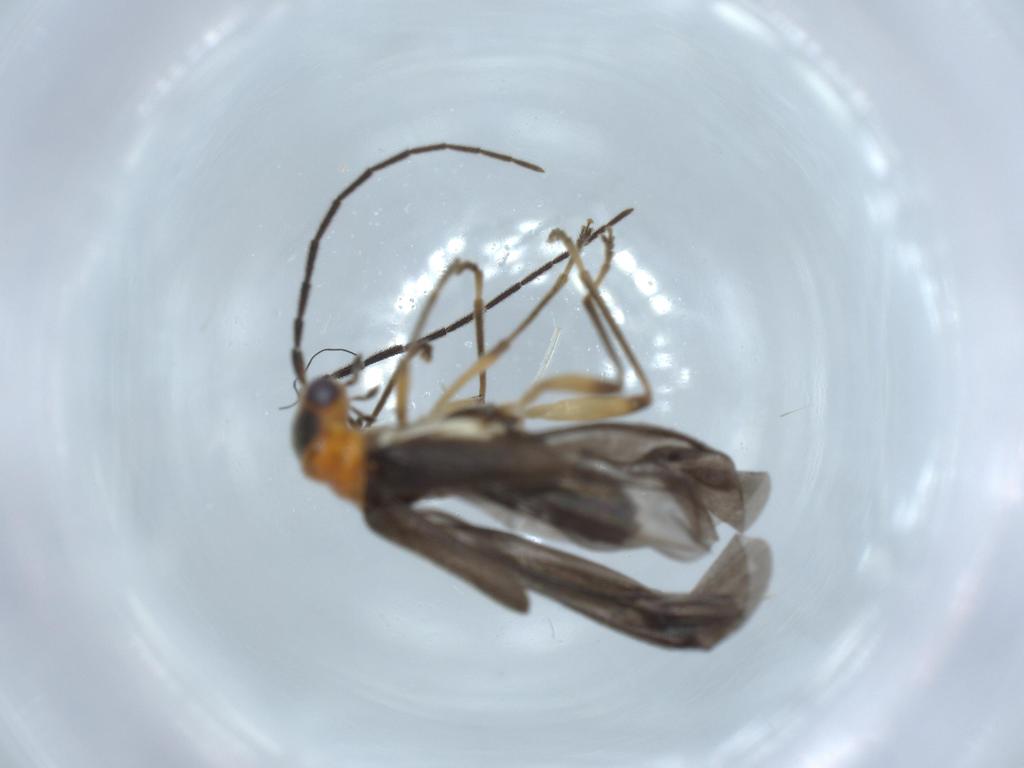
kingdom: Animalia
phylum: Arthropoda
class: Insecta
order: Coleoptera
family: Cantharidae
